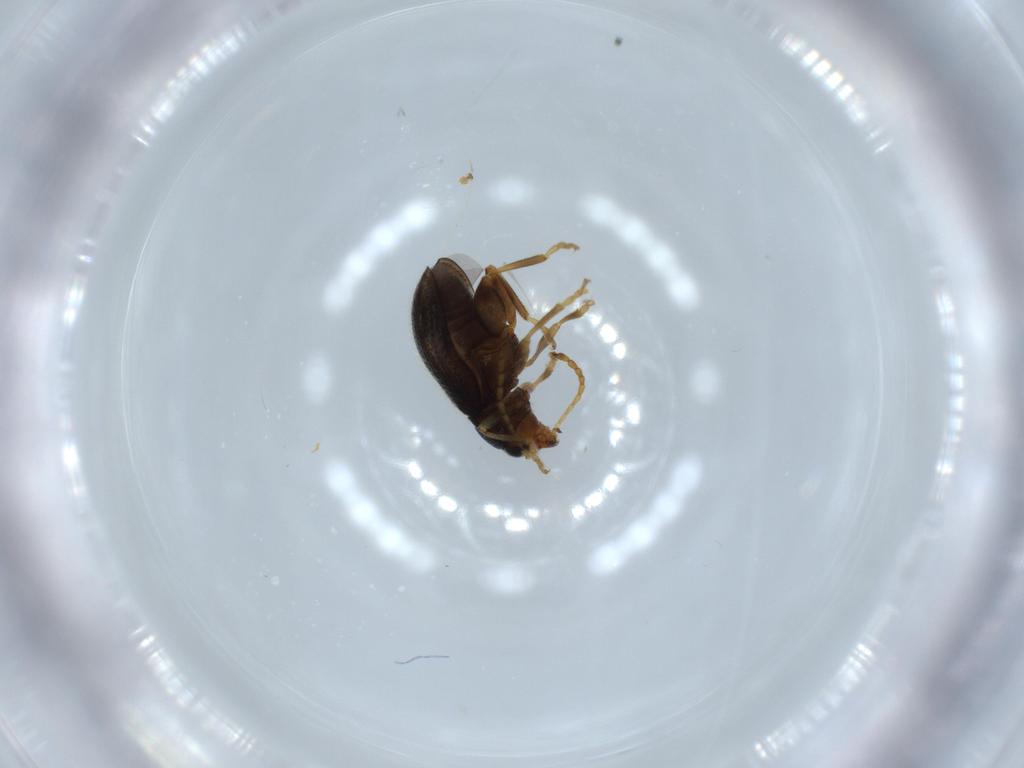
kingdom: Animalia
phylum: Arthropoda
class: Insecta
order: Coleoptera
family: Chrysomelidae
